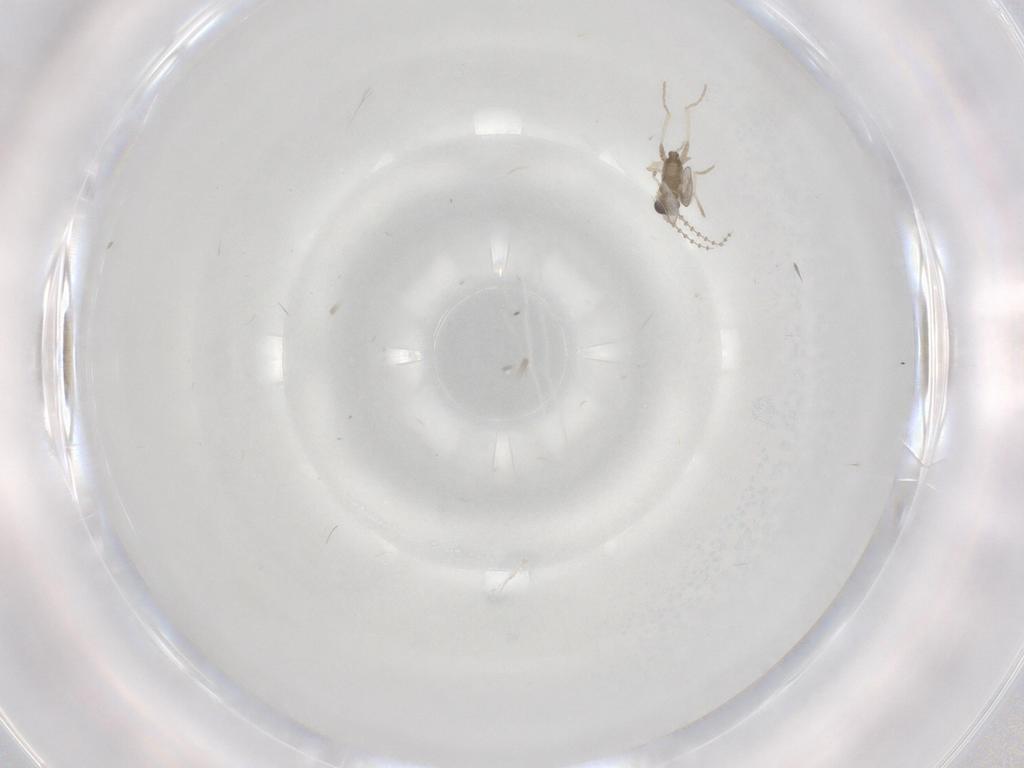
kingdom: Animalia
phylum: Arthropoda
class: Insecta
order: Diptera
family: Cecidomyiidae
